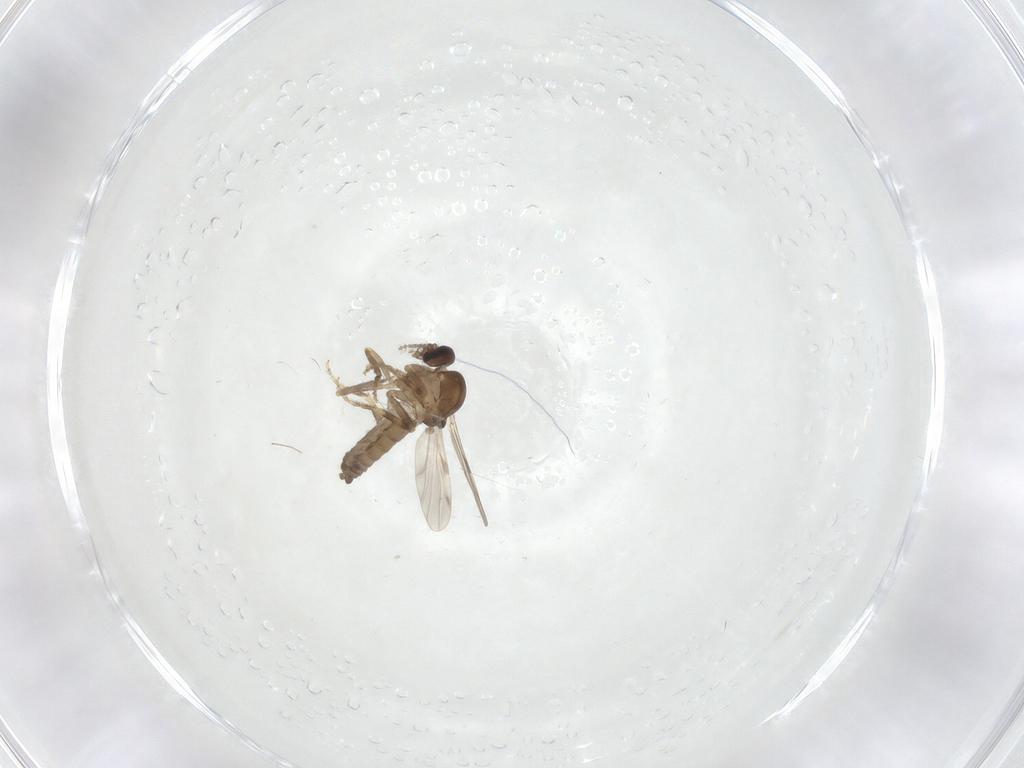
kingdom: Animalia
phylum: Arthropoda
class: Insecta
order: Diptera
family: Ceratopogonidae
